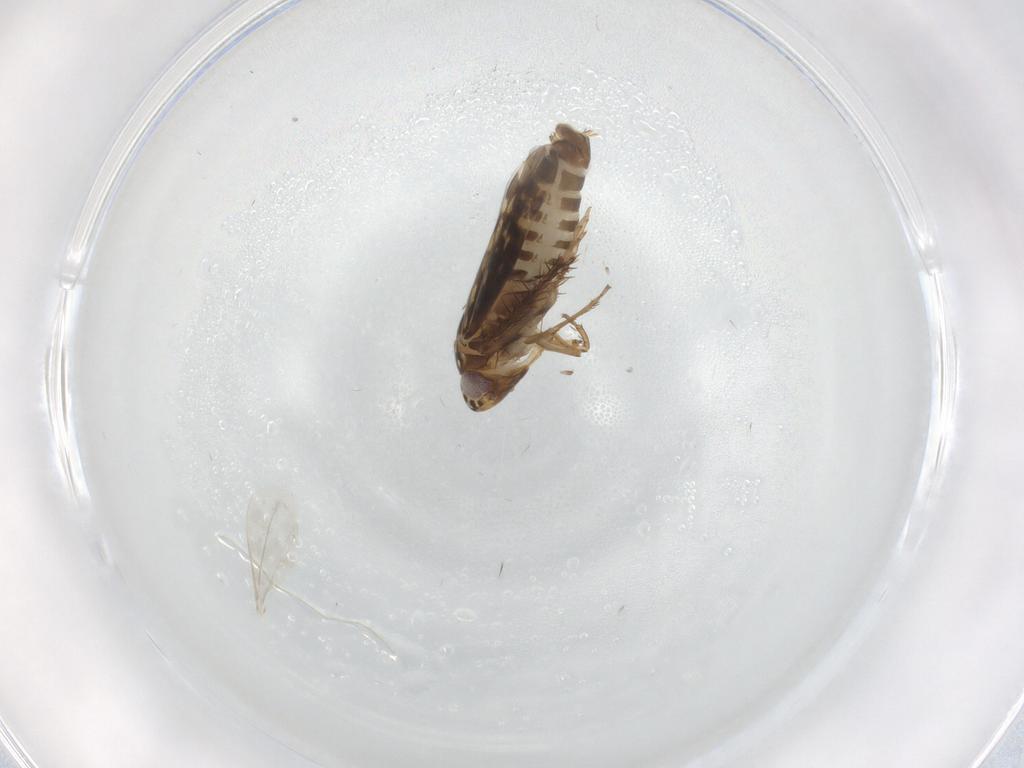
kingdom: Animalia
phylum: Arthropoda
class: Insecta
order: Hemiptera
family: Cicadellidae
